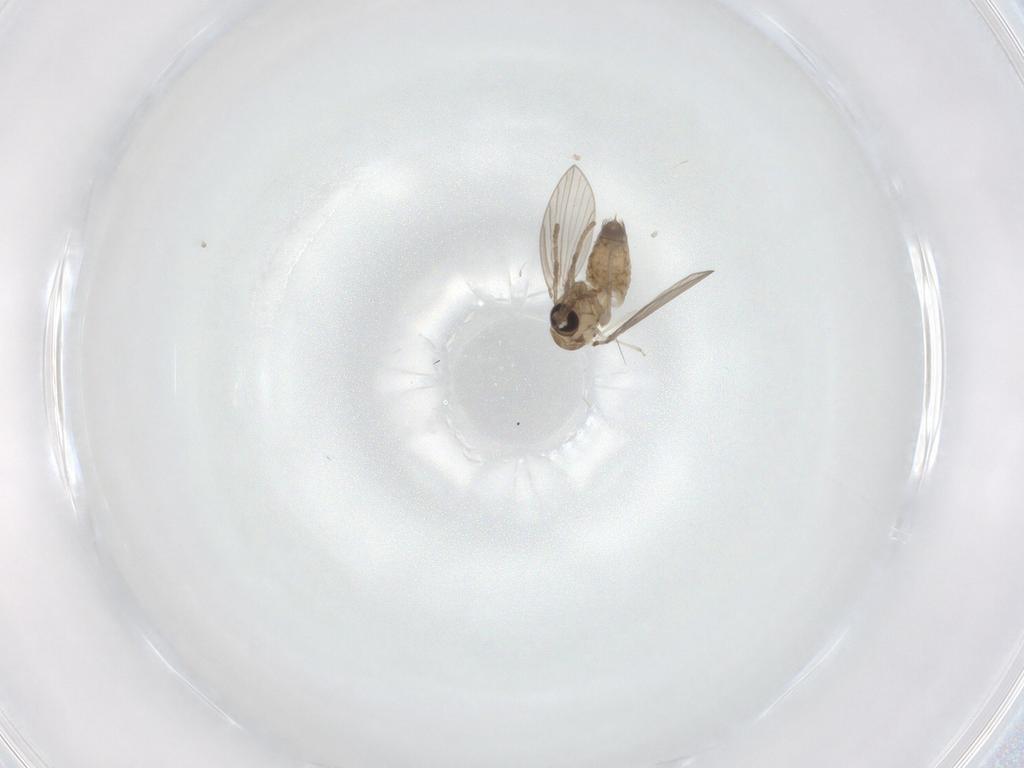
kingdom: Animalia
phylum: Arthropoda
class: Insecta
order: Diptera
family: Psychodidae
